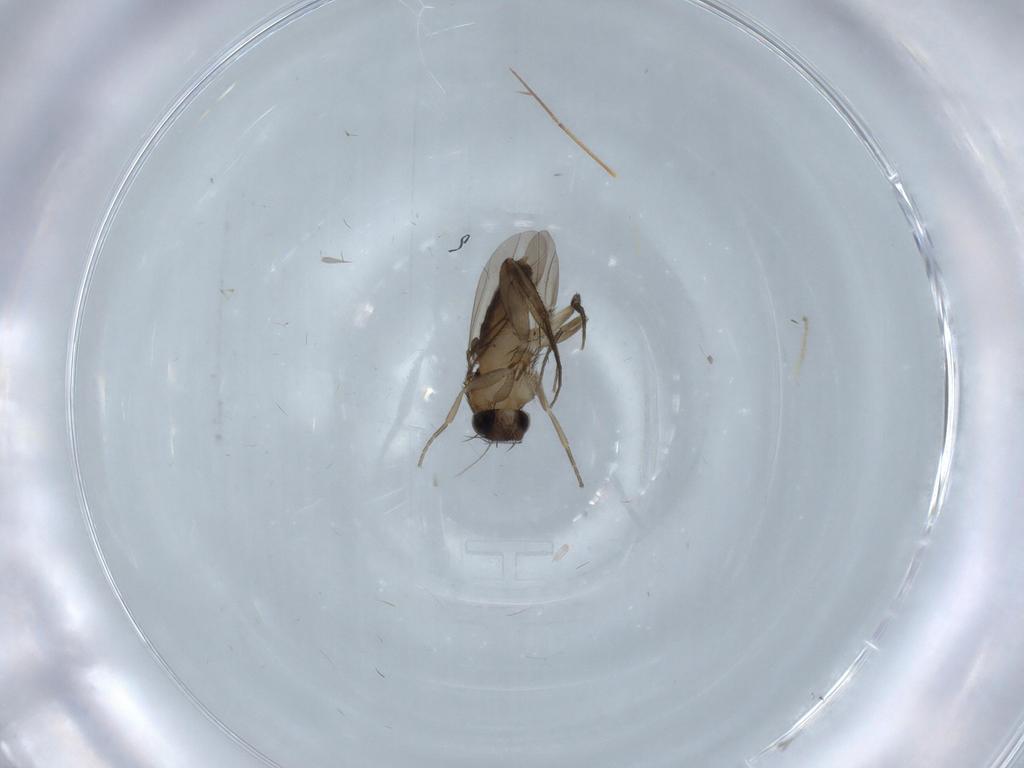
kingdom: Animalia
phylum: Arthropoda
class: Insecta
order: Diptera
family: Phoridae
